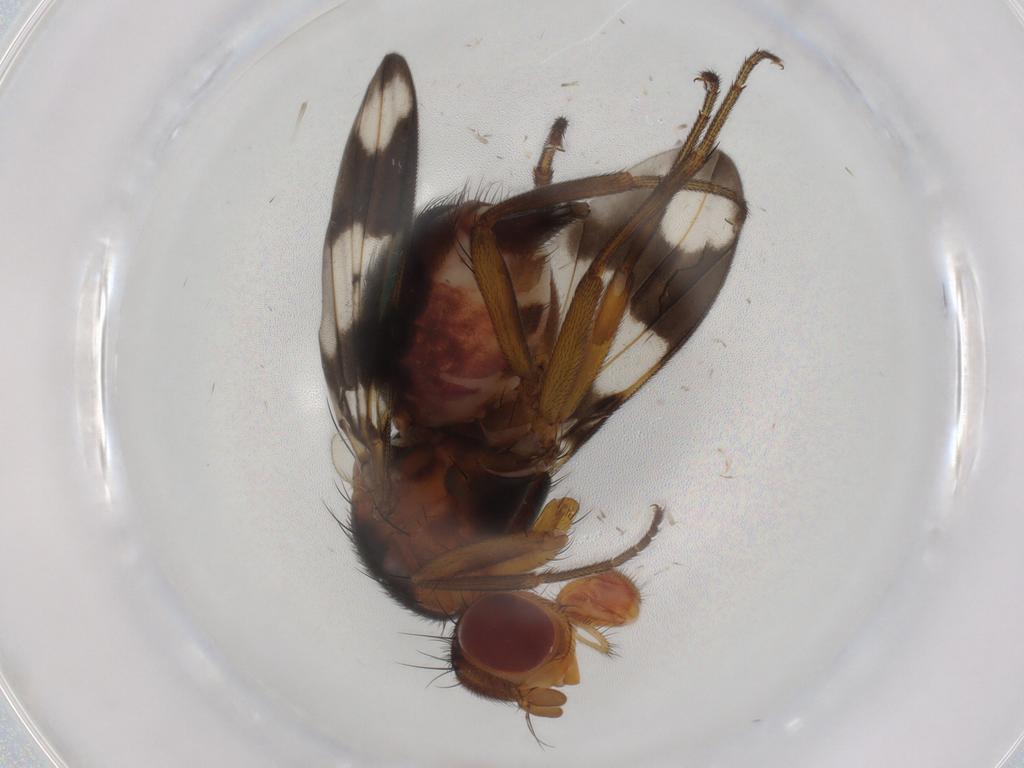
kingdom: Animalia
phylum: Arthropoda
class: Insecta
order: Diptera
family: Richardiidae
